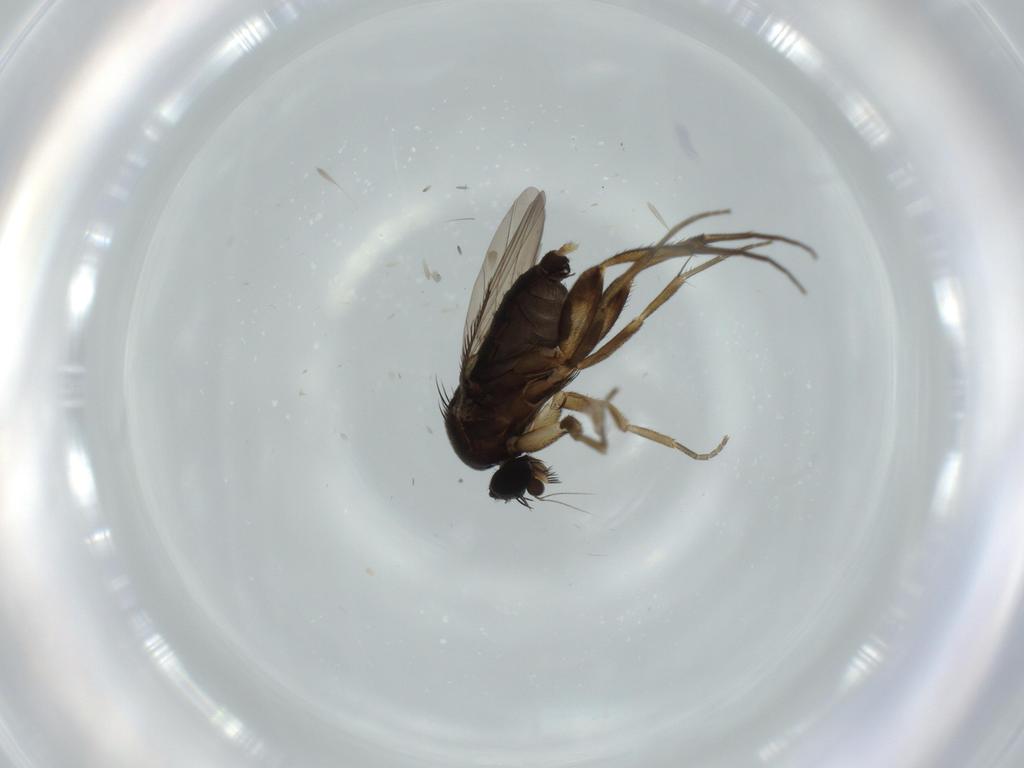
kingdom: Animalia
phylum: Arthropoda
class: Insecta
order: Diptera
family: Phoridae
